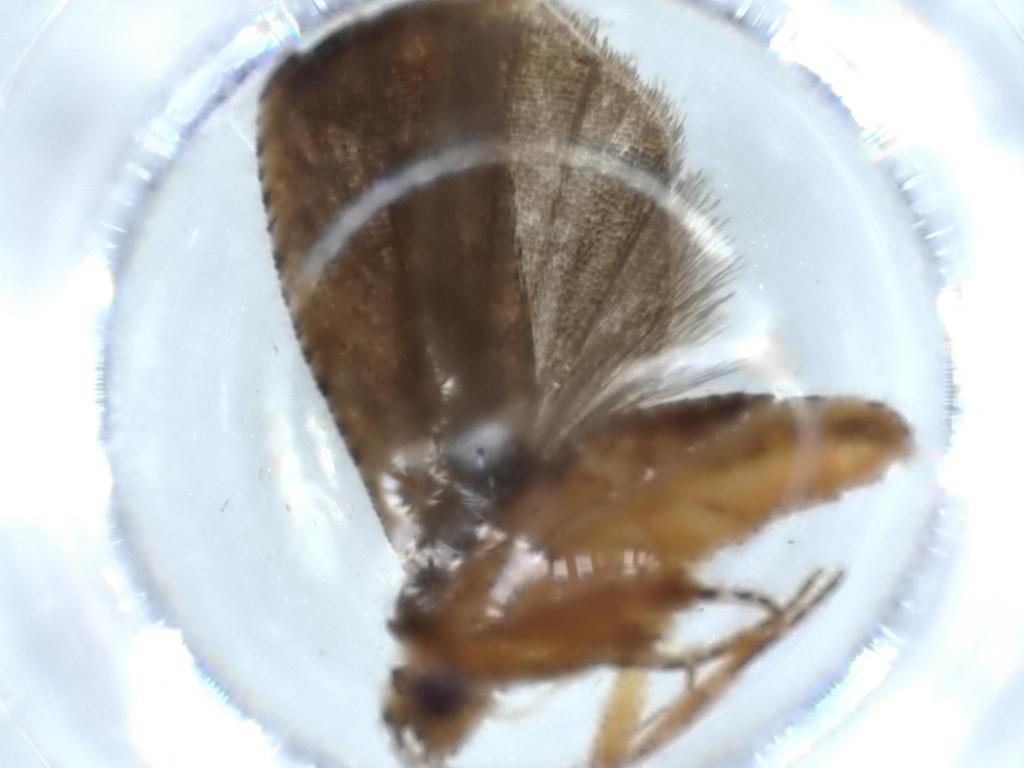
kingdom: Animalia
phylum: Arthropoda
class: Insecta
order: Lepidoptera
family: Tortricidae
